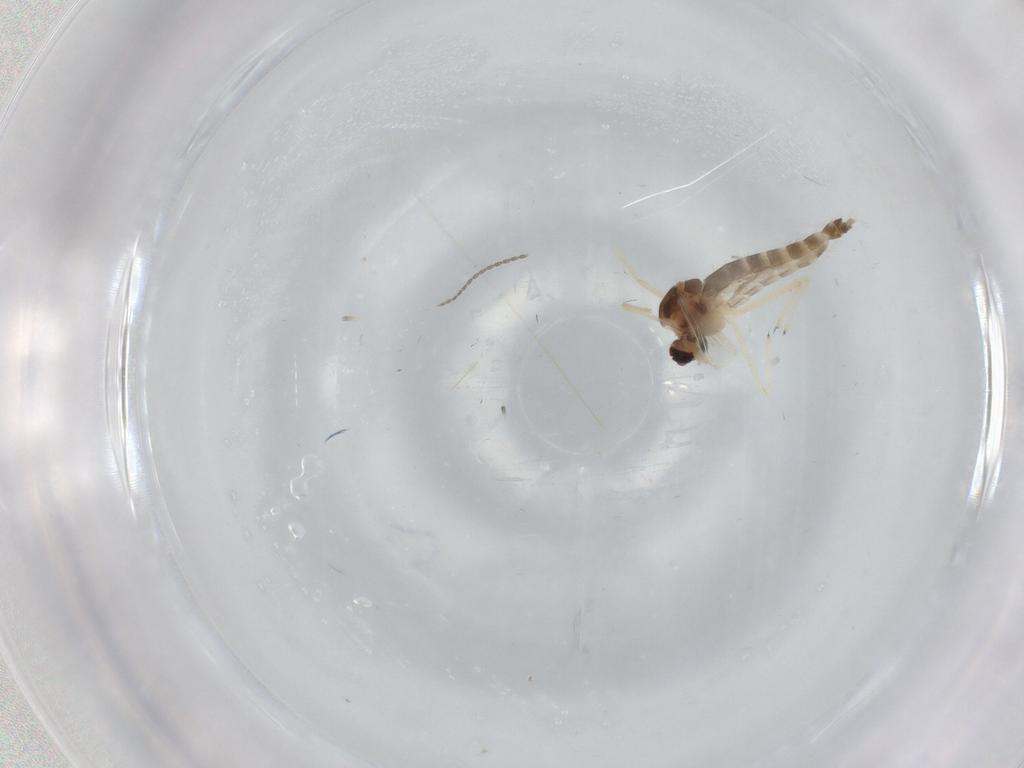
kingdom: Animalia
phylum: Arthropoda
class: Insecta
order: Diptera
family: Chironomidae
